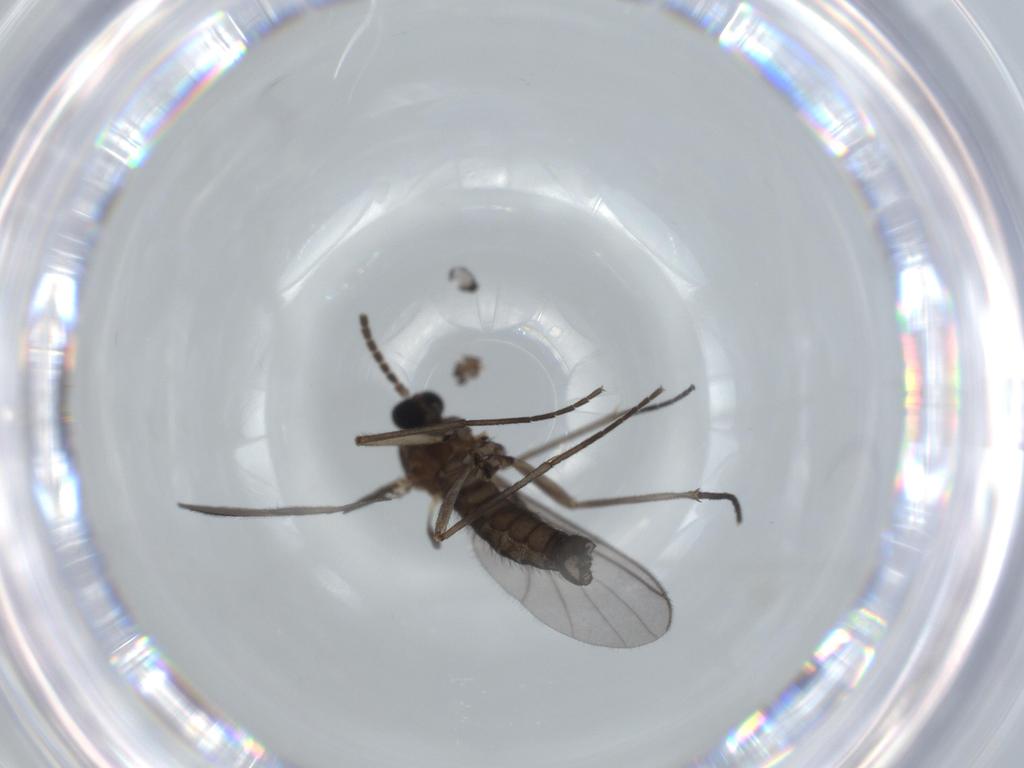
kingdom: Animalia
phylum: Arthropoda
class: Insecta
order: Diptera
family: Sciaridae
